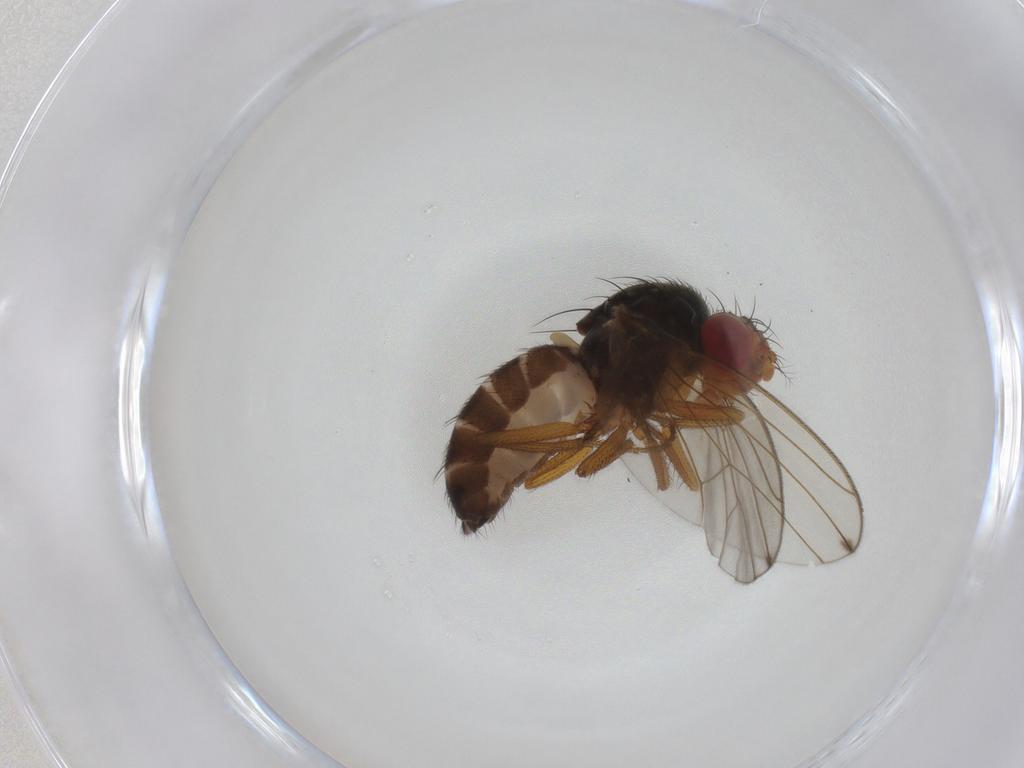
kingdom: Animalia
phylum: Arthropoda
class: Insecta
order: Diptera
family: Drosophilidae
